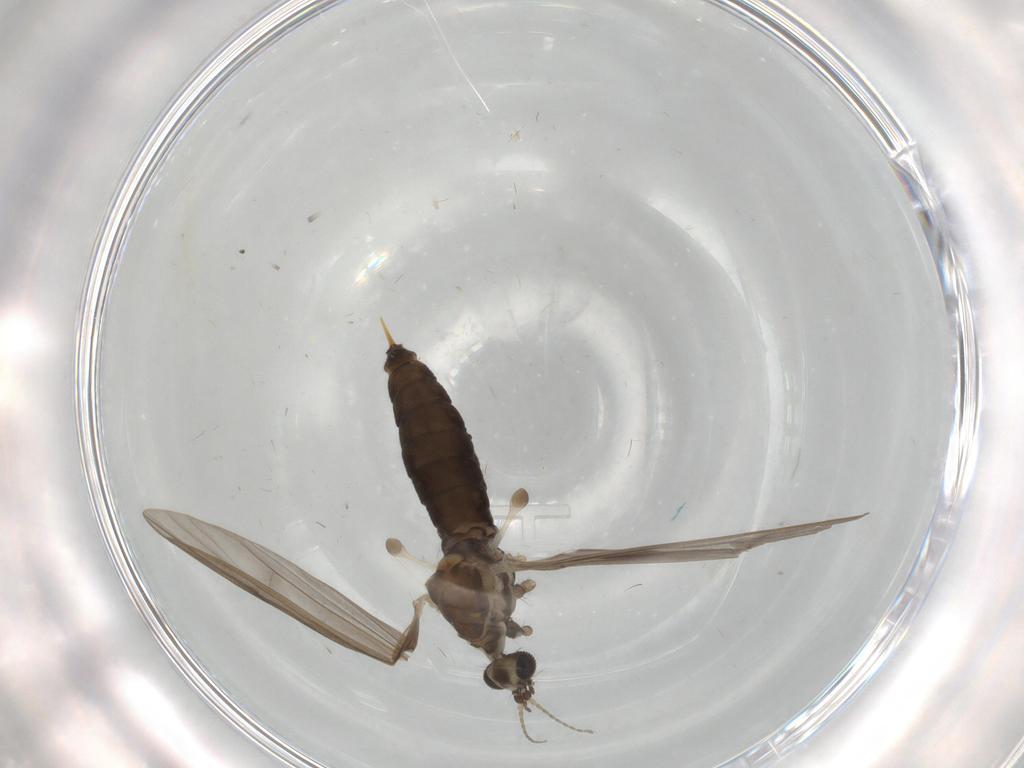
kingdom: Animalia
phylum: Arthropoda
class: Insecta
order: Diptera
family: Limoniidae
